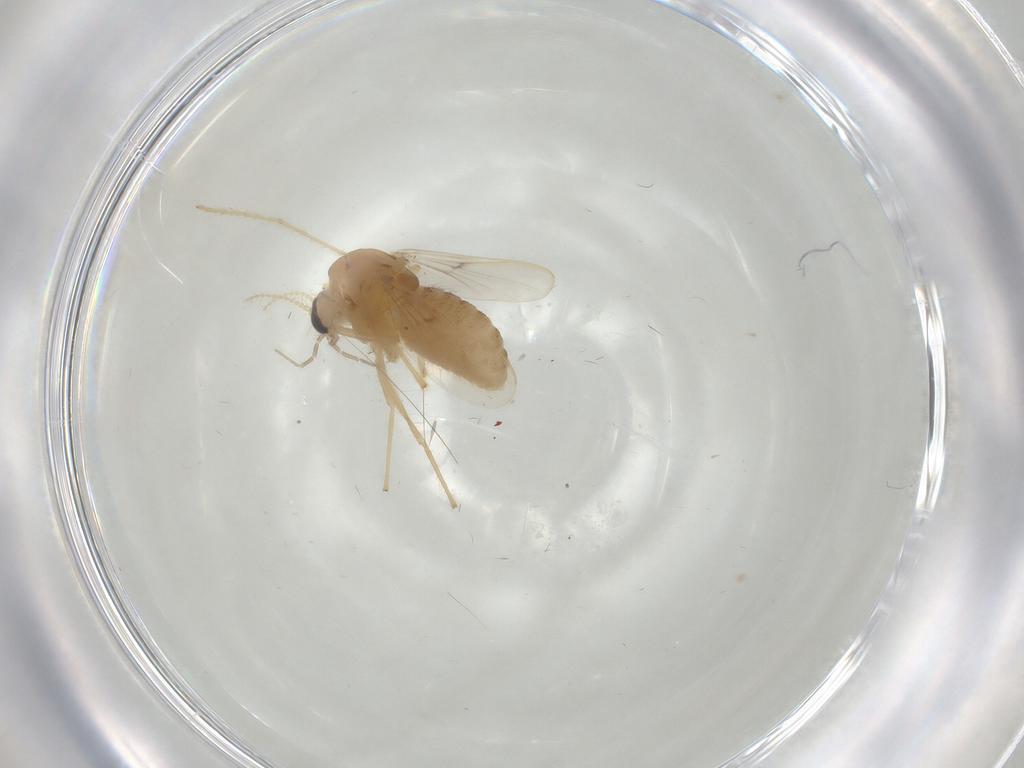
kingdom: Animalia
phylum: Arthropoda
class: Insecta
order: Diptera
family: Chironomidae
